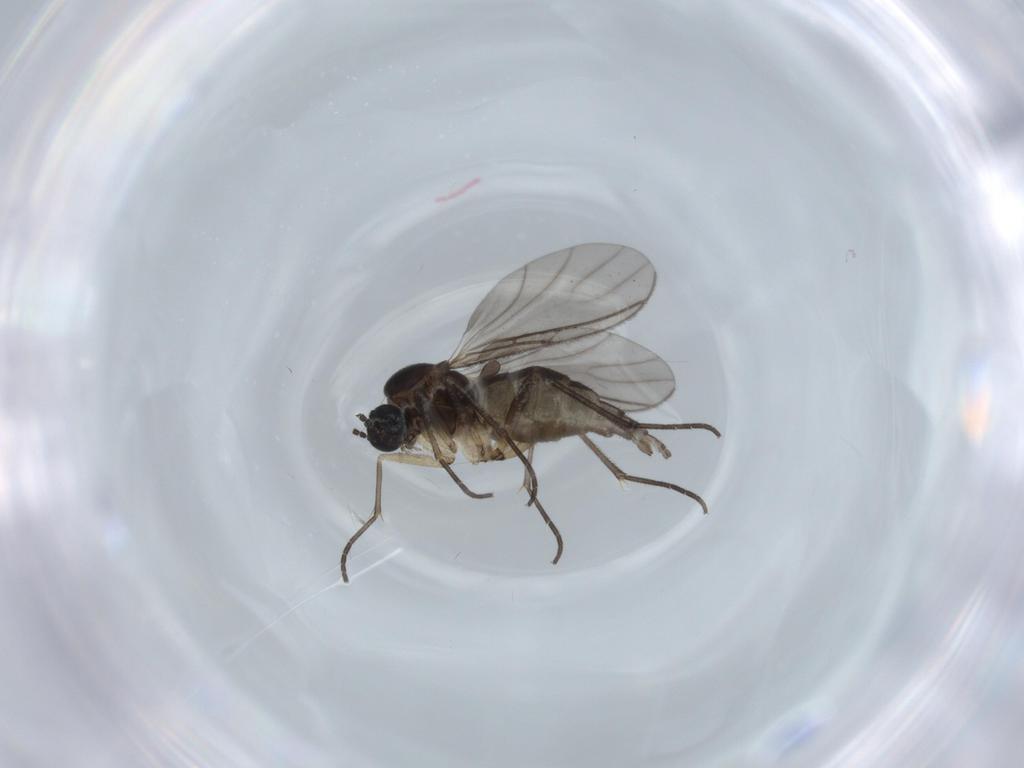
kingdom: Animalia
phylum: Arthropoda
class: Insecta
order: Diptera
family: Sciaridae
